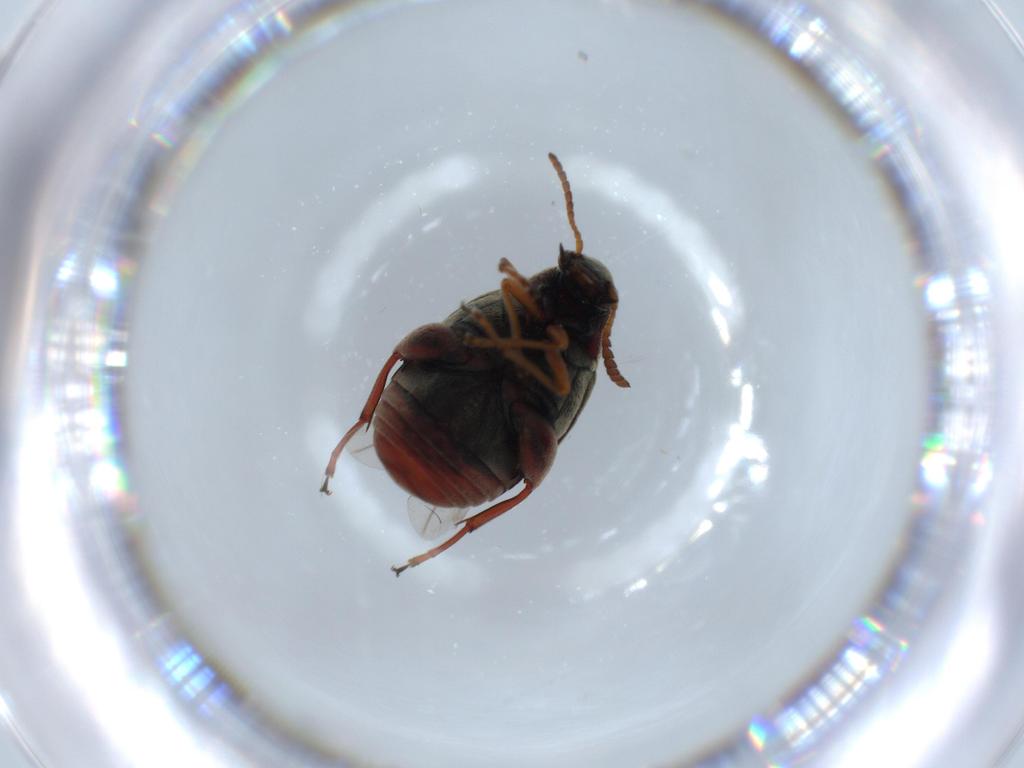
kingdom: Animalia
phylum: Arthropoda
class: Insecta
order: Coleoptera
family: Chrysomelidae
